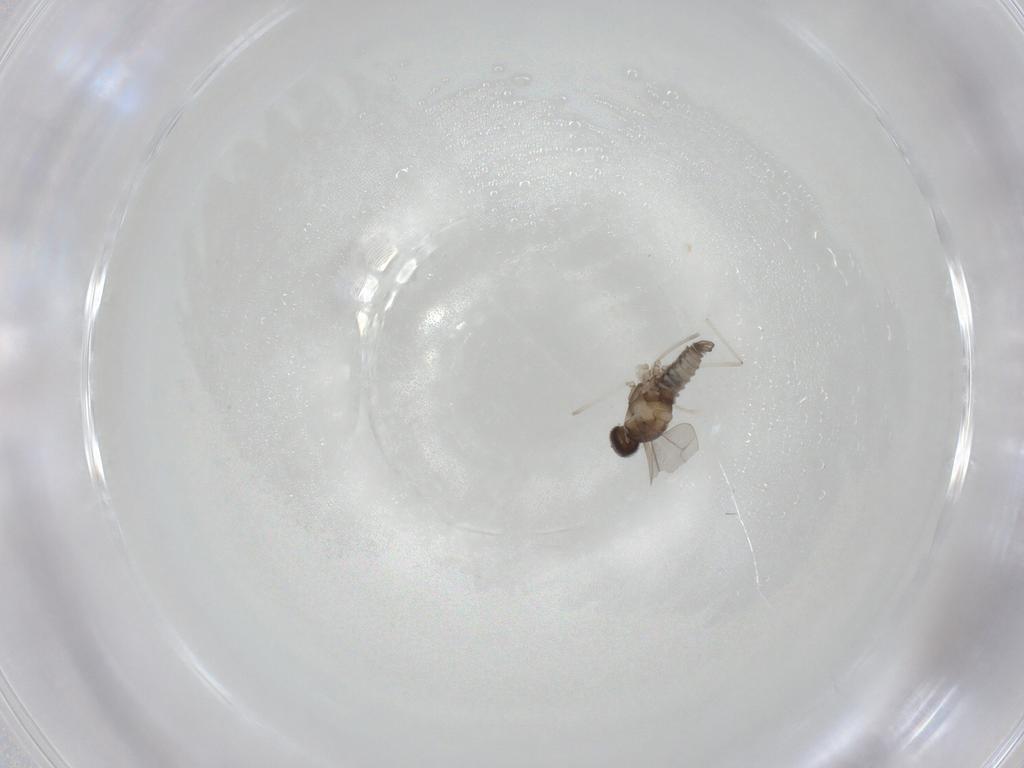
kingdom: Animalia
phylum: Arthropoda
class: Insecta
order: Diptera
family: Cecidomyiidae
